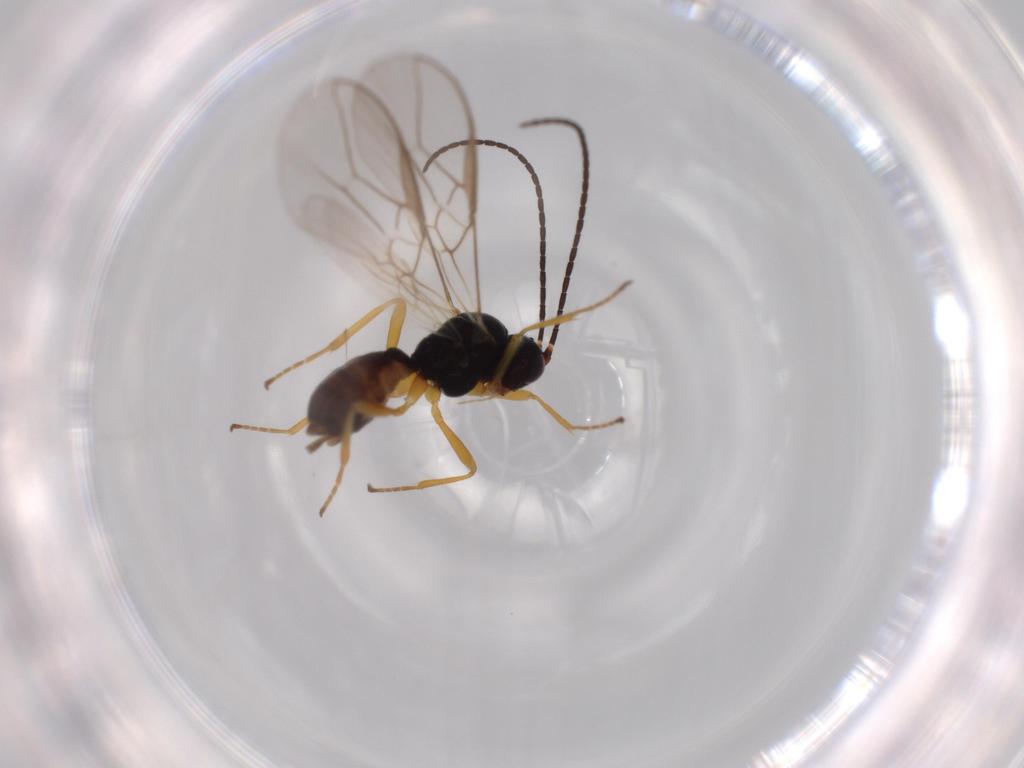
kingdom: Animalia
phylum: Arthropoda
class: Insecta
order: Hymenoptera
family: Braconidae
